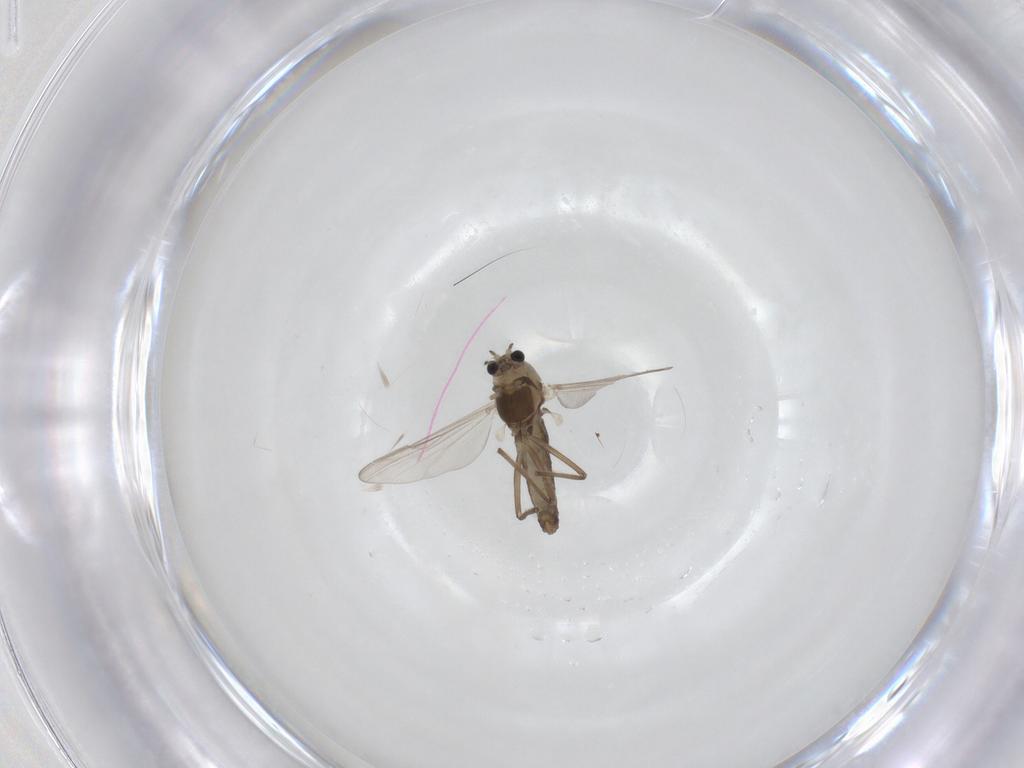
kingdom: Animalia
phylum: Arthropoda
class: Insecta
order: Diptera
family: Chironomidae
